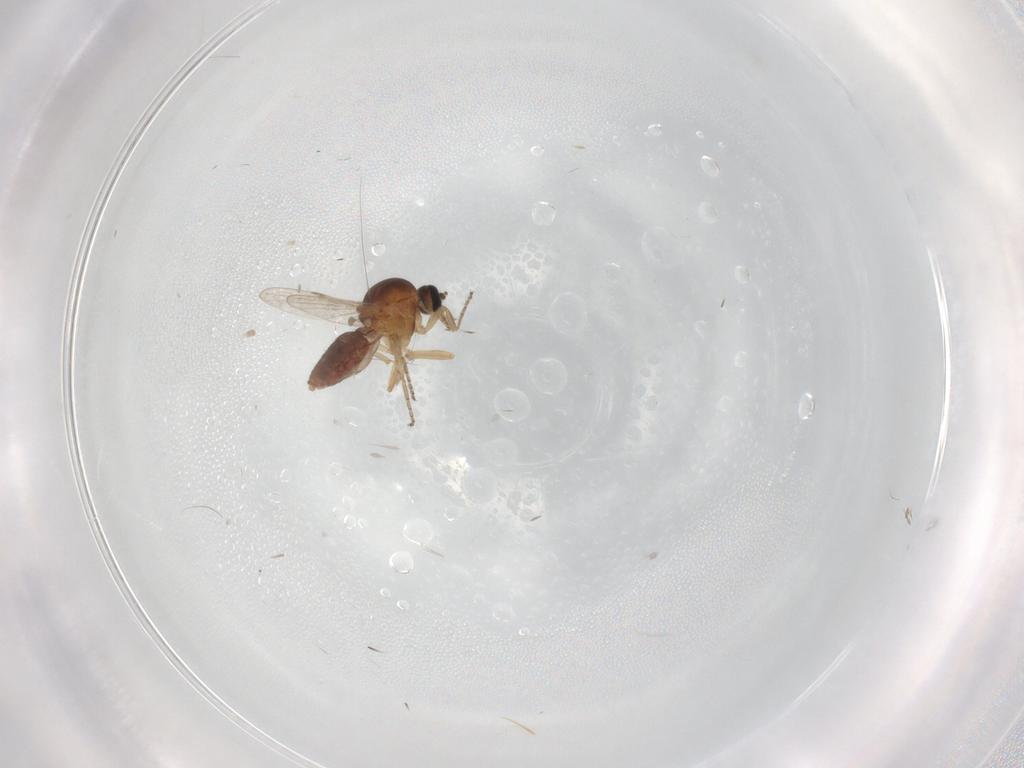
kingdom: Animalia
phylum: Arthropoda
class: Insecta
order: Diptera
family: Ceratopogonidae
